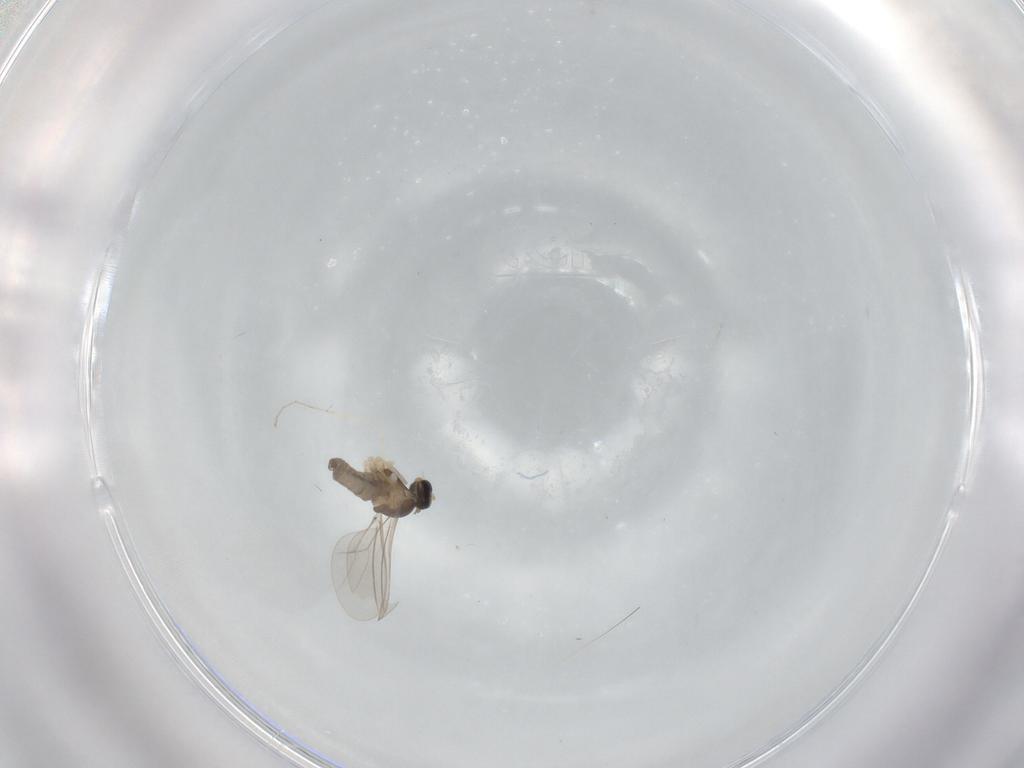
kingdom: Animalia
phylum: Arthropoda
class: Insecta
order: Diptera
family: Cecidomyiidae
